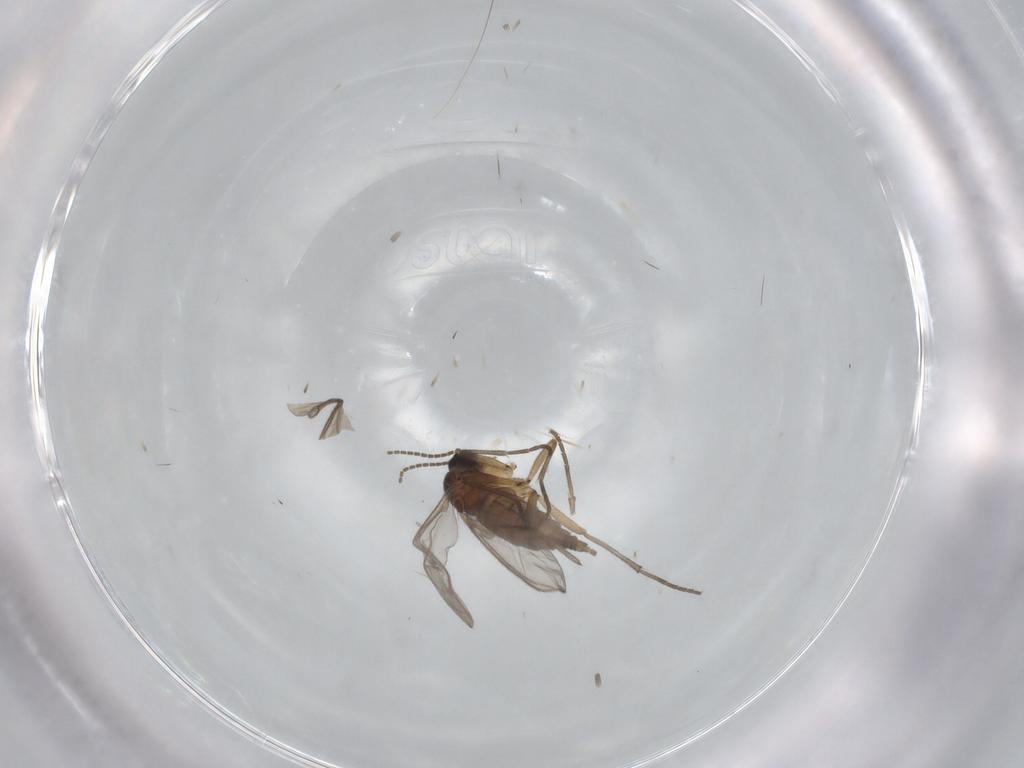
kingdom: Animalia
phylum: Arthropoda
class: Insecta
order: Diptera
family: Sciaridae
